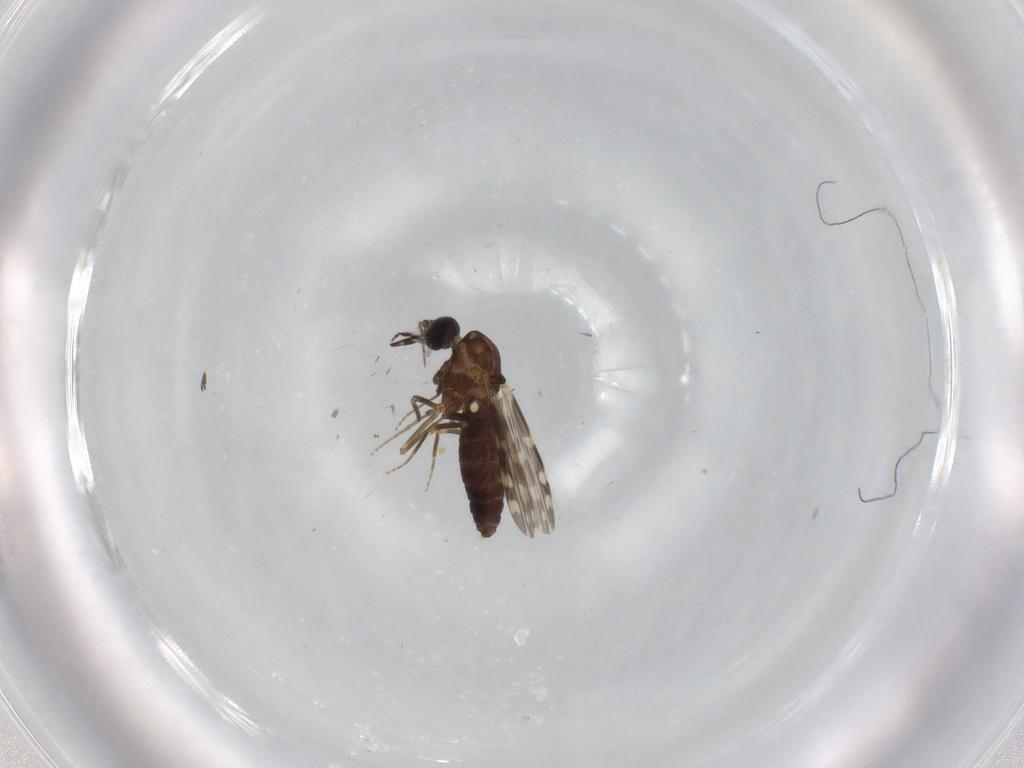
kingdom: Animalia
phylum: Arthropoda
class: Insecta
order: Diptera
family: Ceratopogonidae
